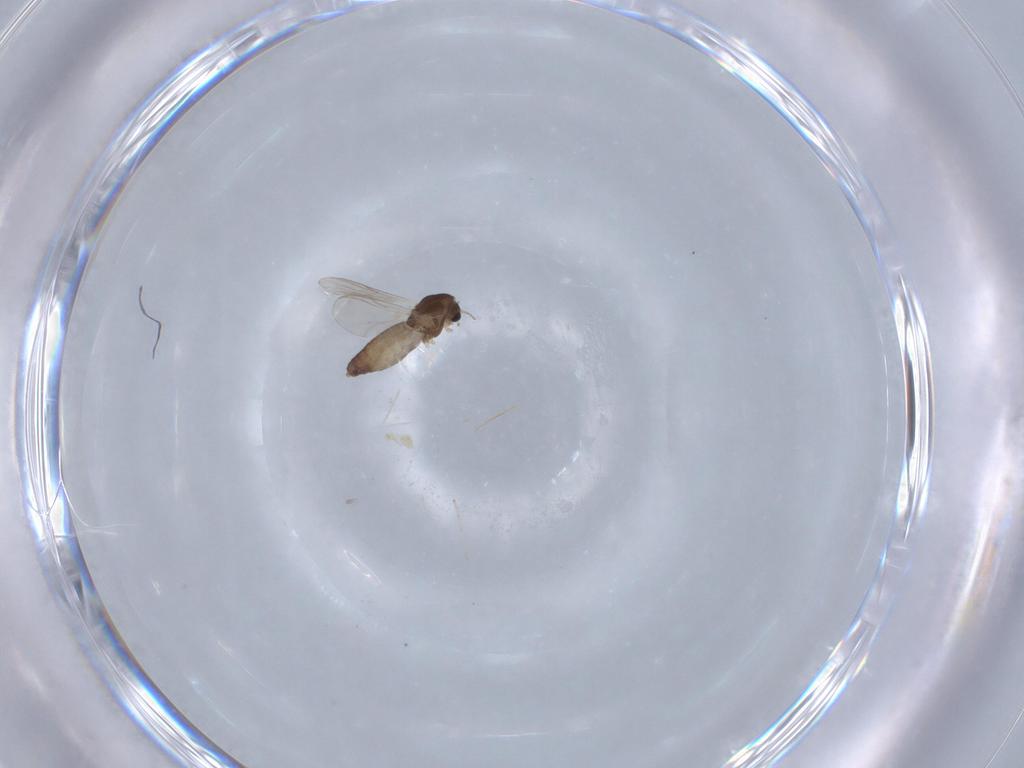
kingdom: Animalia
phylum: Arthropoda
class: Insecta
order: Diptera
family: Chironomidae
